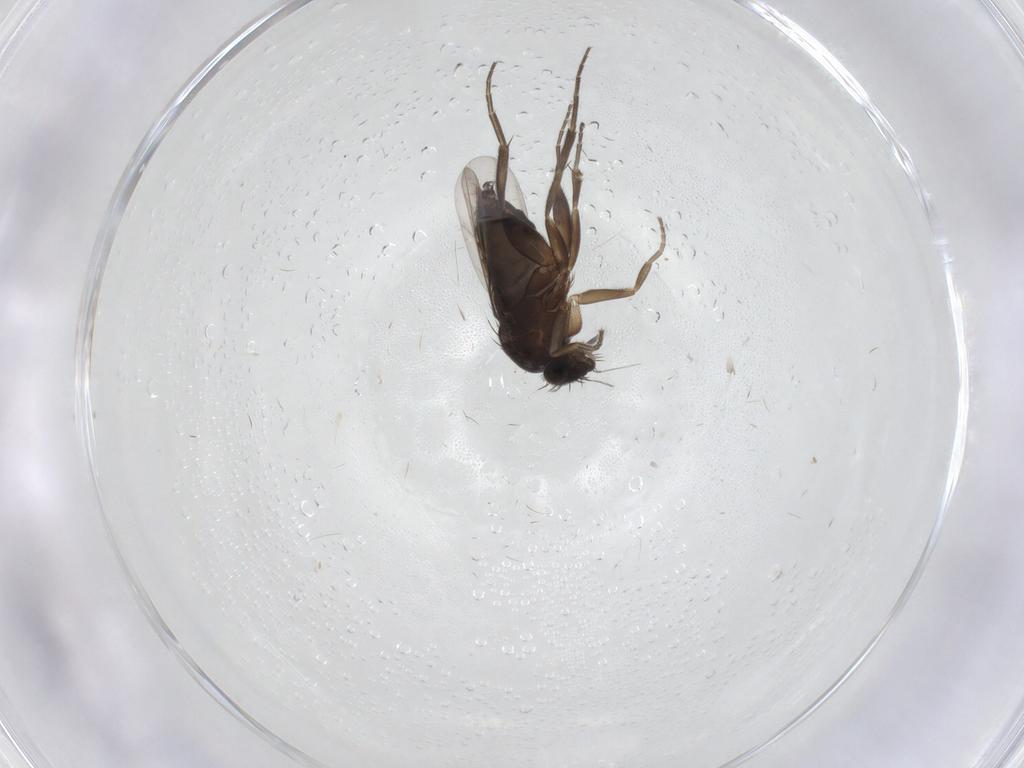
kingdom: Animalia
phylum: Arthropoda
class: Insecta
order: Diptera
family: Phoridae
